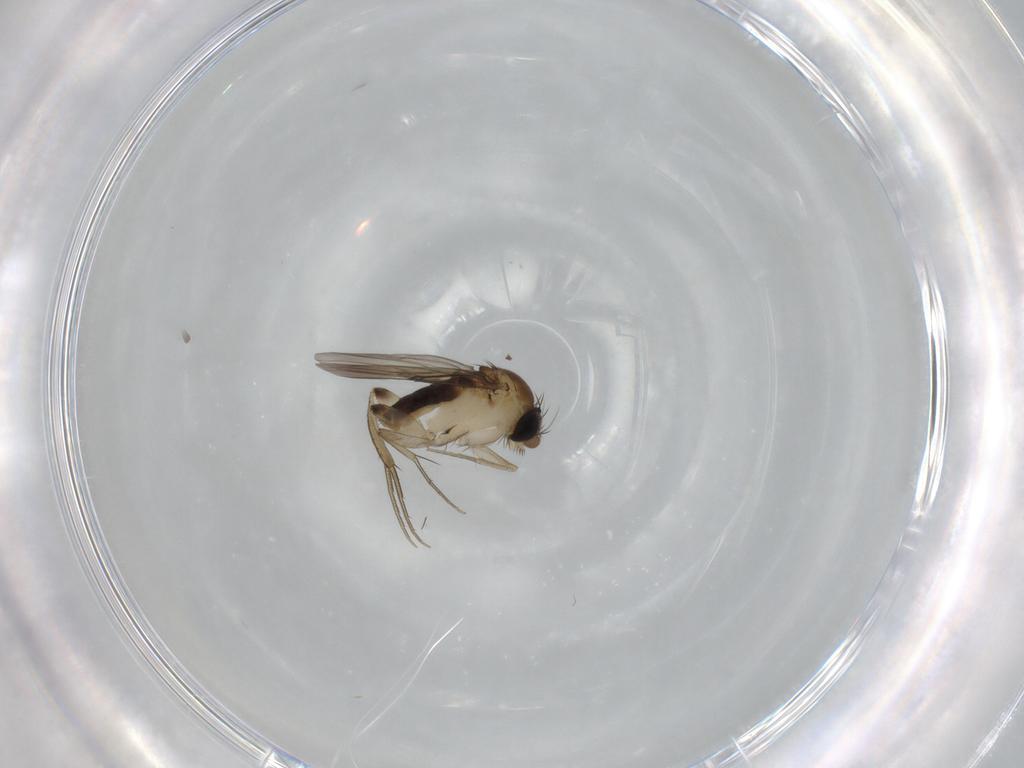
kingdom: Animalia
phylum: Arthropoda
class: Insecta
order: Diptera
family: Phoridae
